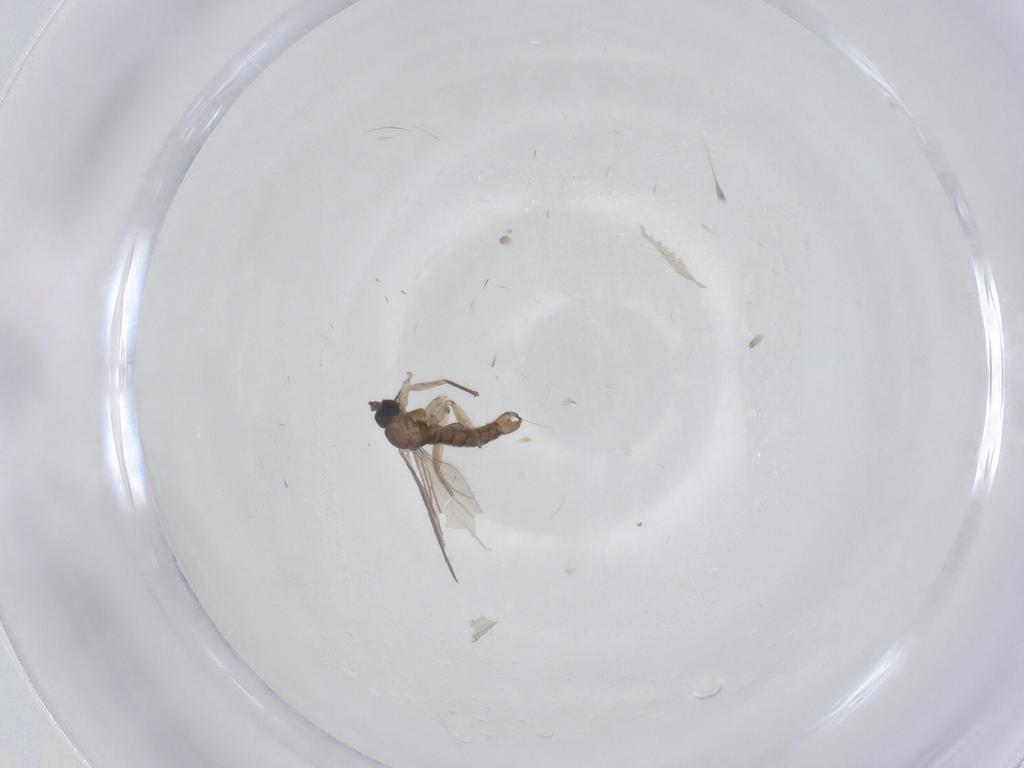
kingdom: Animalia
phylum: Arthropoda
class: Insecta
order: Diptera
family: Sciaridae
